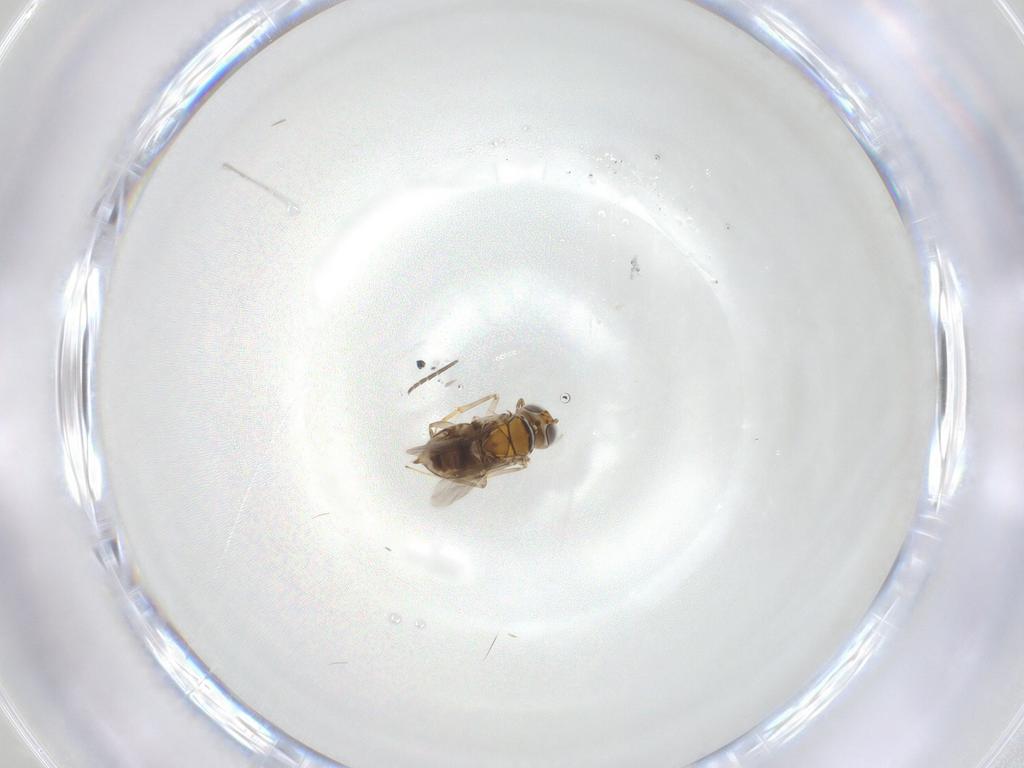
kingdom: Animalia
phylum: Arthropoda
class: Insecta
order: Hymenoptera
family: Encyrtidae
